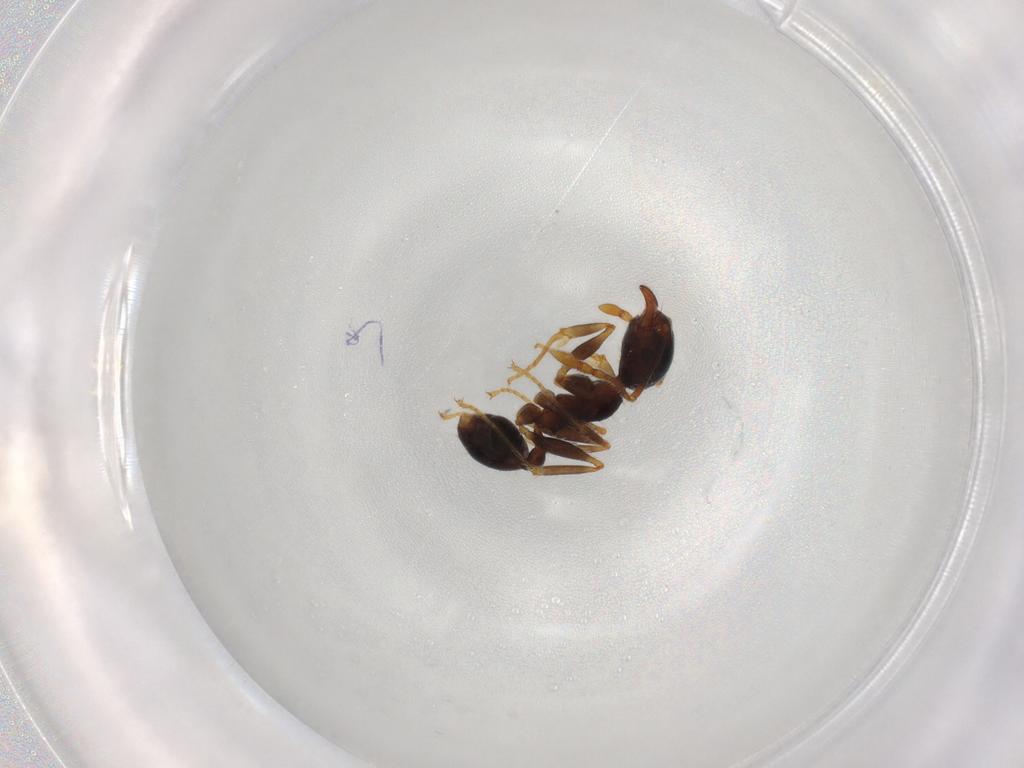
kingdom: Animalia
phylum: Arthropoda
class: Insecta
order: Hymenoptera
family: Formicidae
